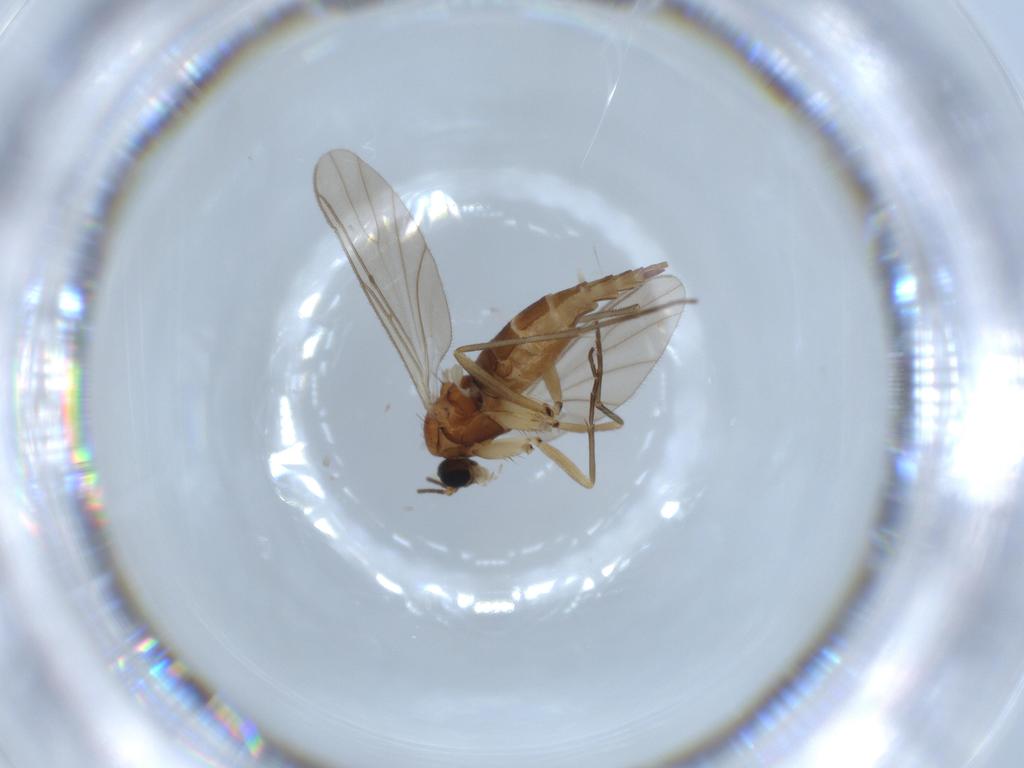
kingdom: Animalia
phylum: Arthropoda
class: Insecta
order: Diptera
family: Sciaridae
